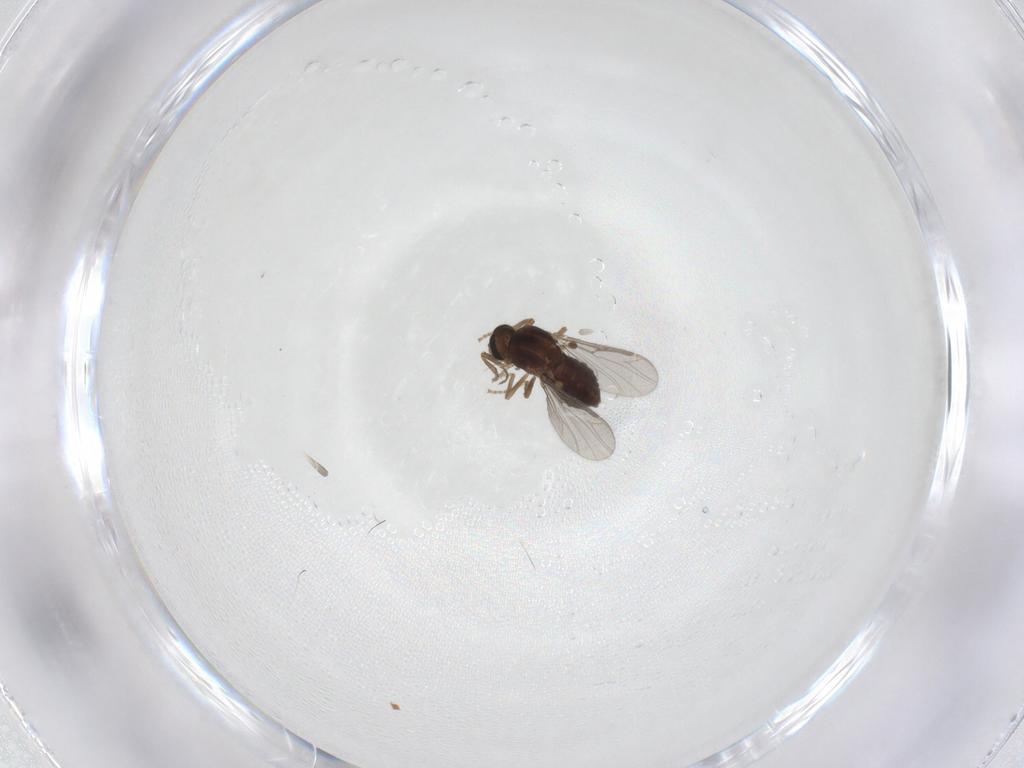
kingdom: Animalia
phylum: Arthropoda
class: Insecta
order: Diptera
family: Ceratopogonidae
